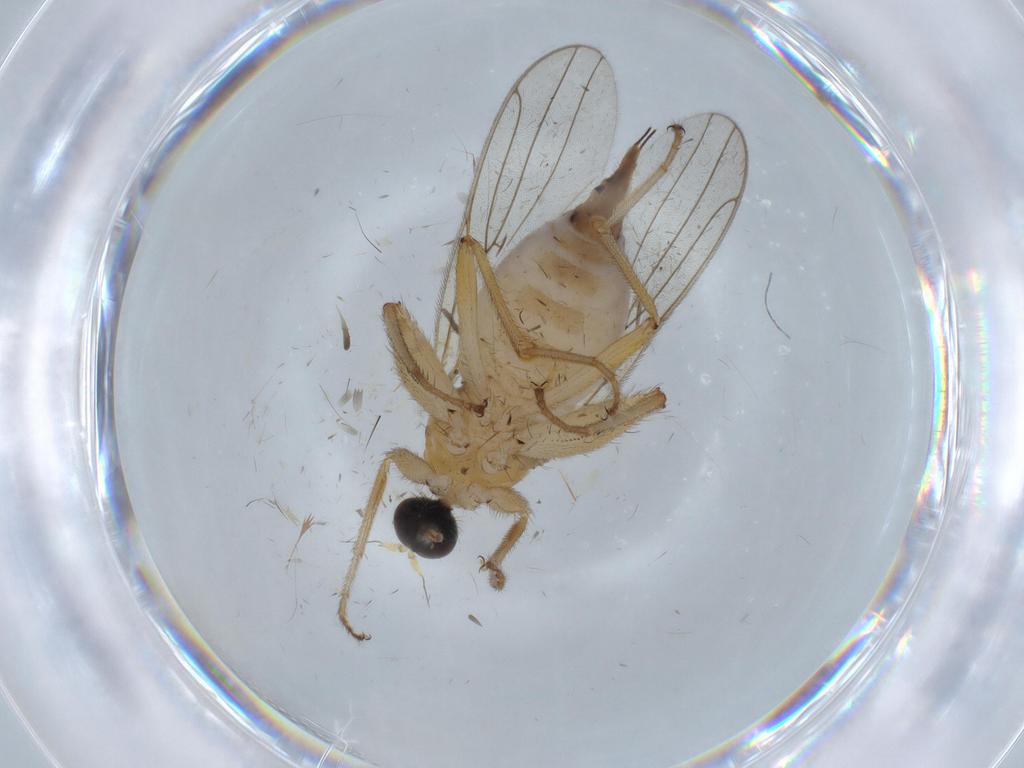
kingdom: Animalia
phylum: Arthropoda
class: Insecta
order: Diptera
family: Hybotidae
